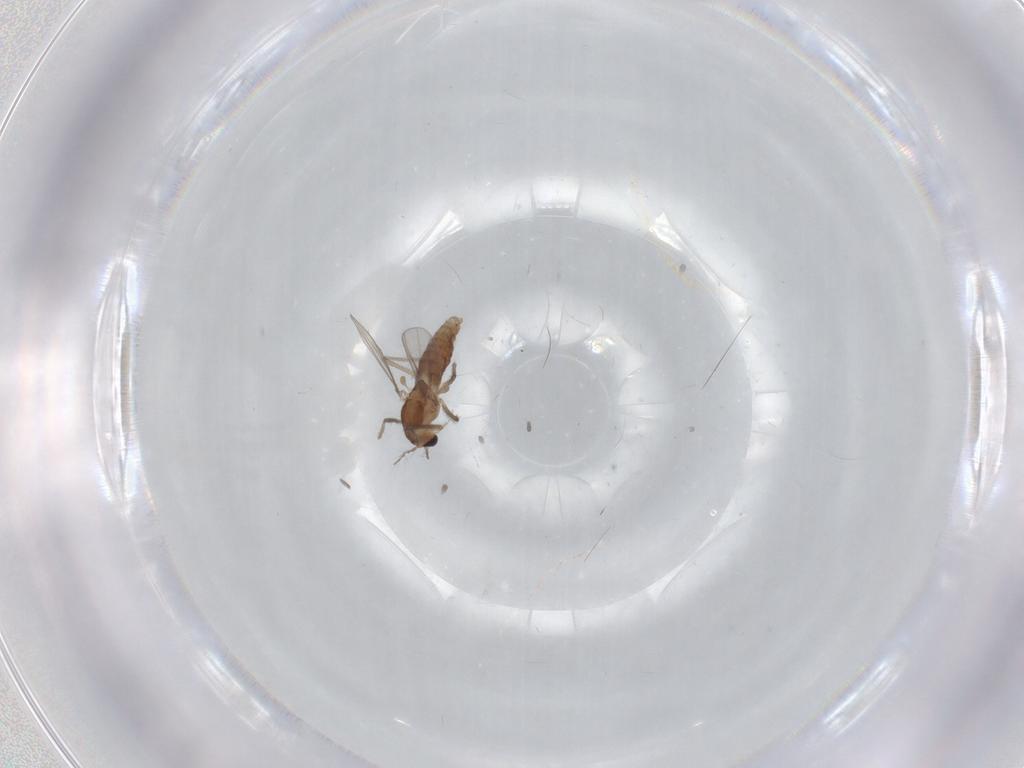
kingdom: Animalia
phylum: Arthropoda
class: Insecta
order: Diptera
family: Chironomidae
